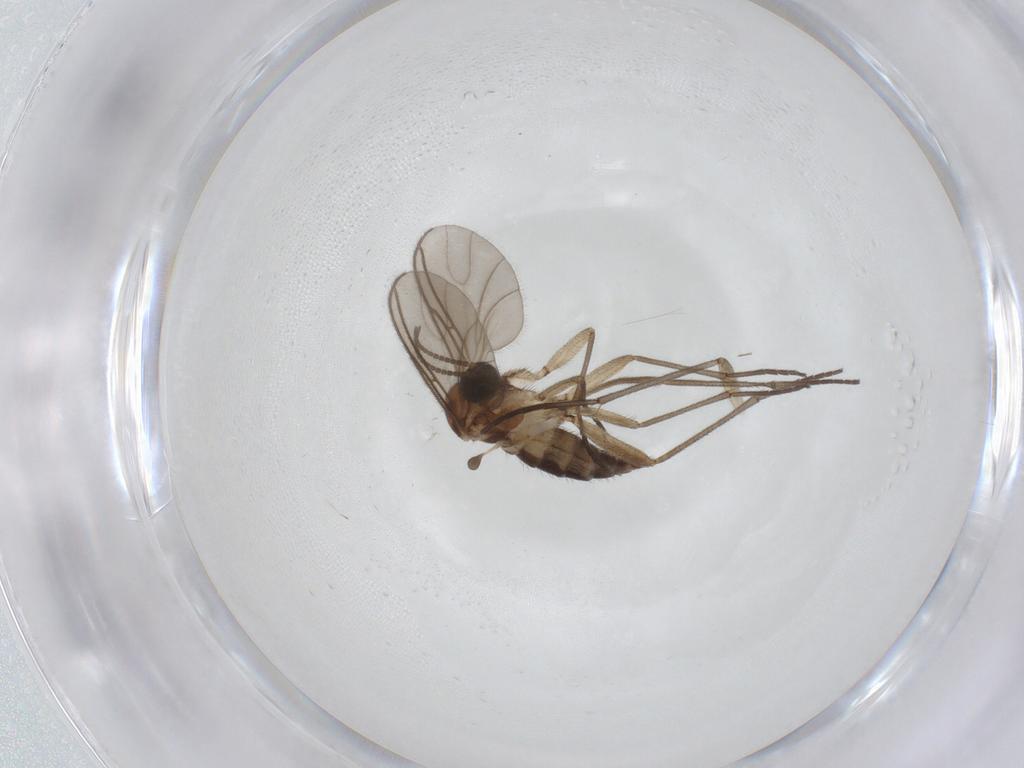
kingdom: Animalia
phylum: Arthropoda
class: Insecta
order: Diptera
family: Sciaridae
